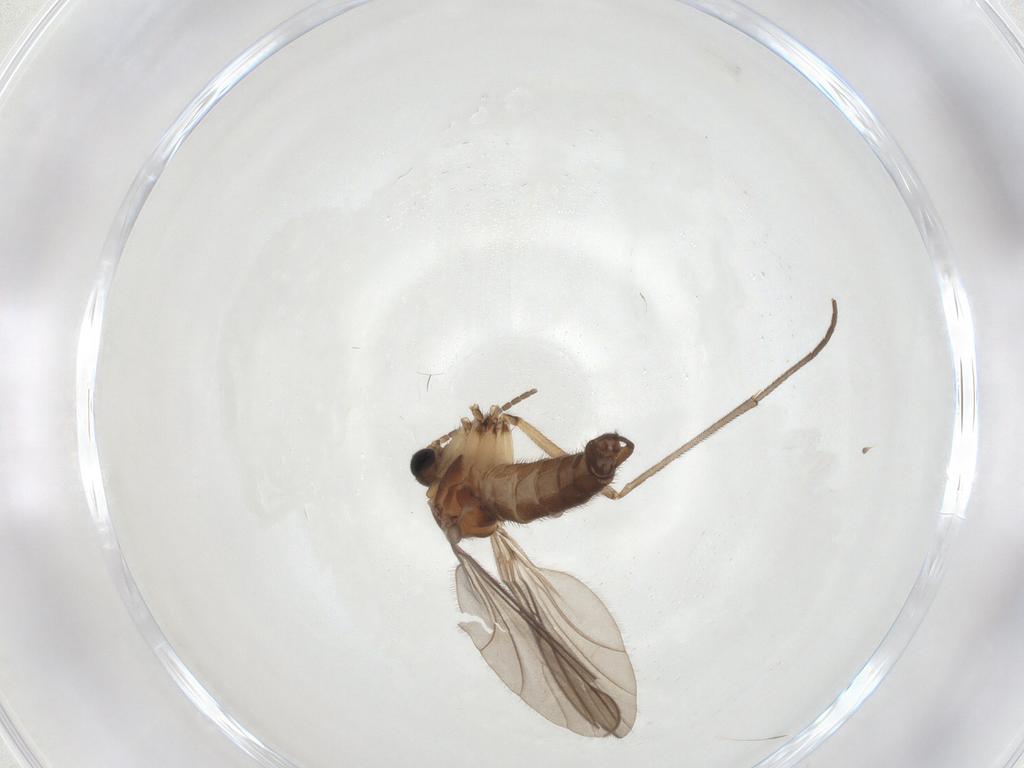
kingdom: Animalia
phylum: Arthropoda
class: Insecta
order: Diptera
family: Sciaridae
